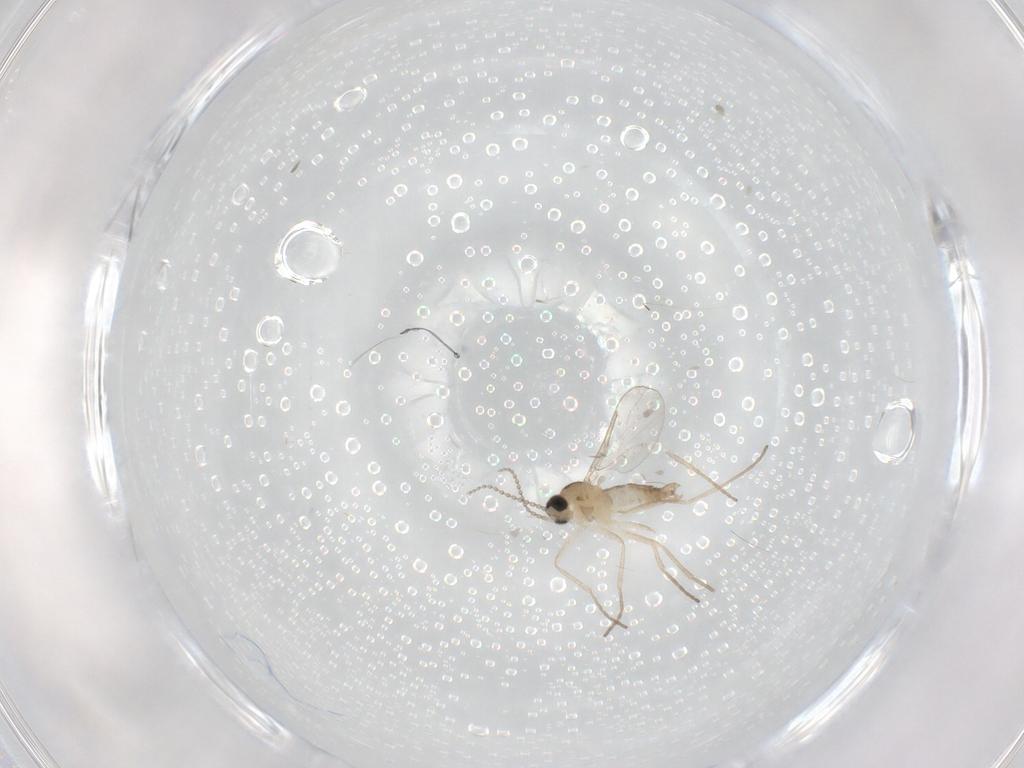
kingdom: Animalia
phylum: Arthropoda
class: Insecta
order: Diptera
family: Cecidomyiidae
